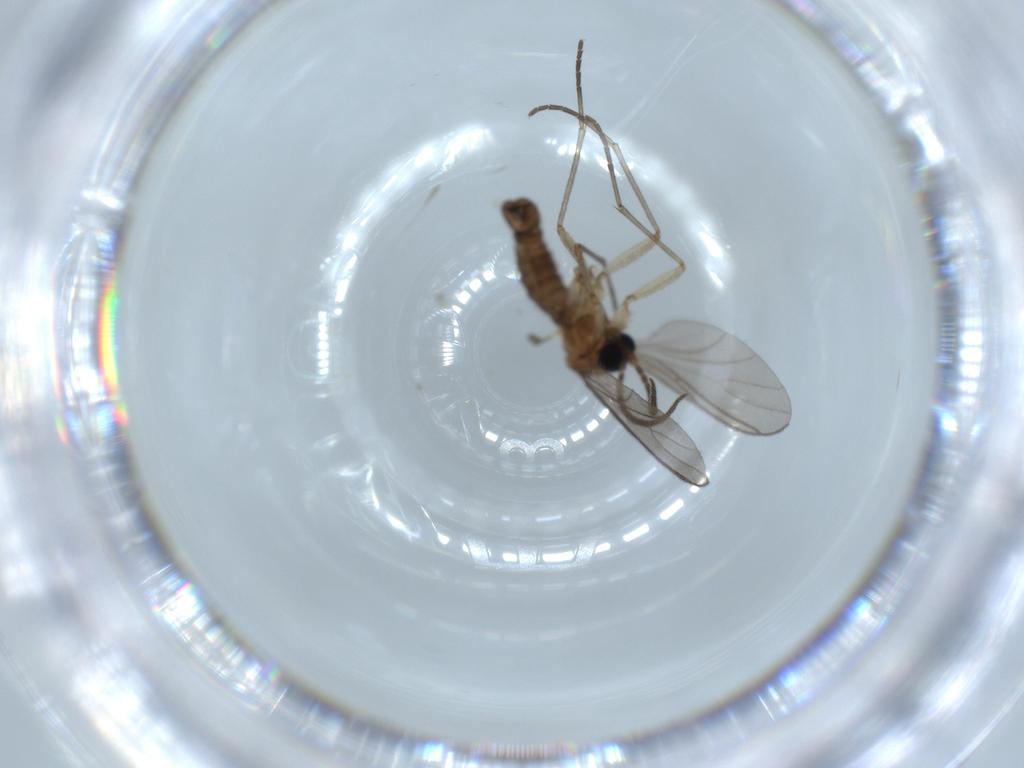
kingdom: Animalia
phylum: Arthropoda
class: Insecta
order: Diptera
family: Sciaridae
